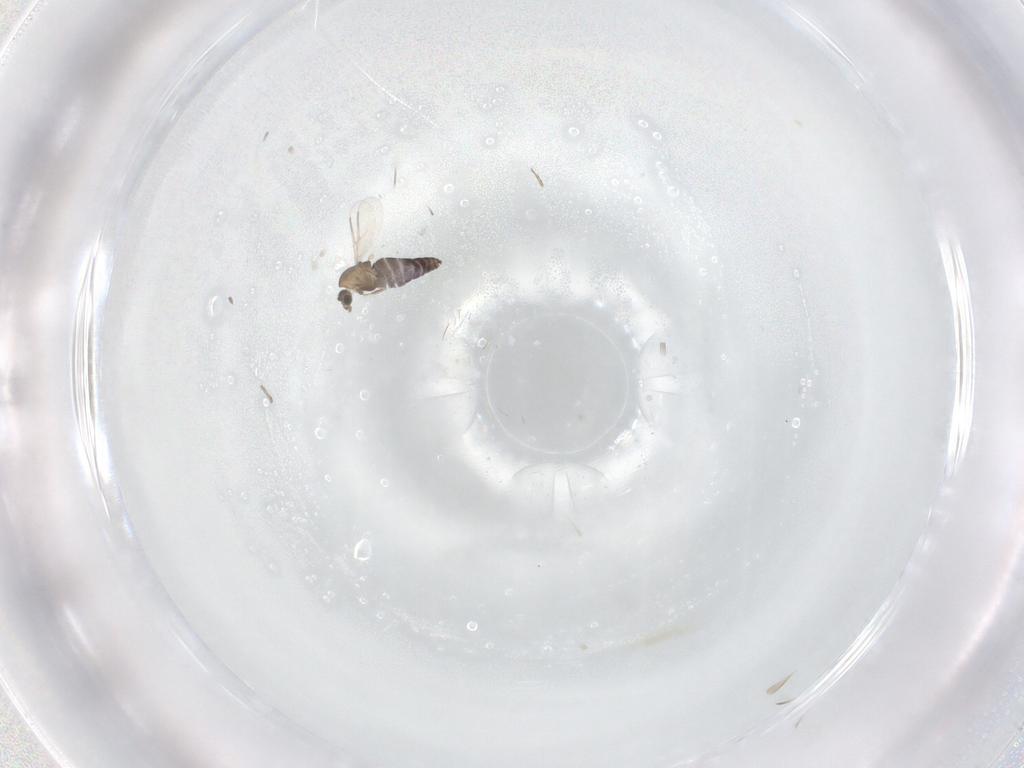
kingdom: Animalia
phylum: Arthropoda
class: Insecta
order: Diptera
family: Chironomidae
